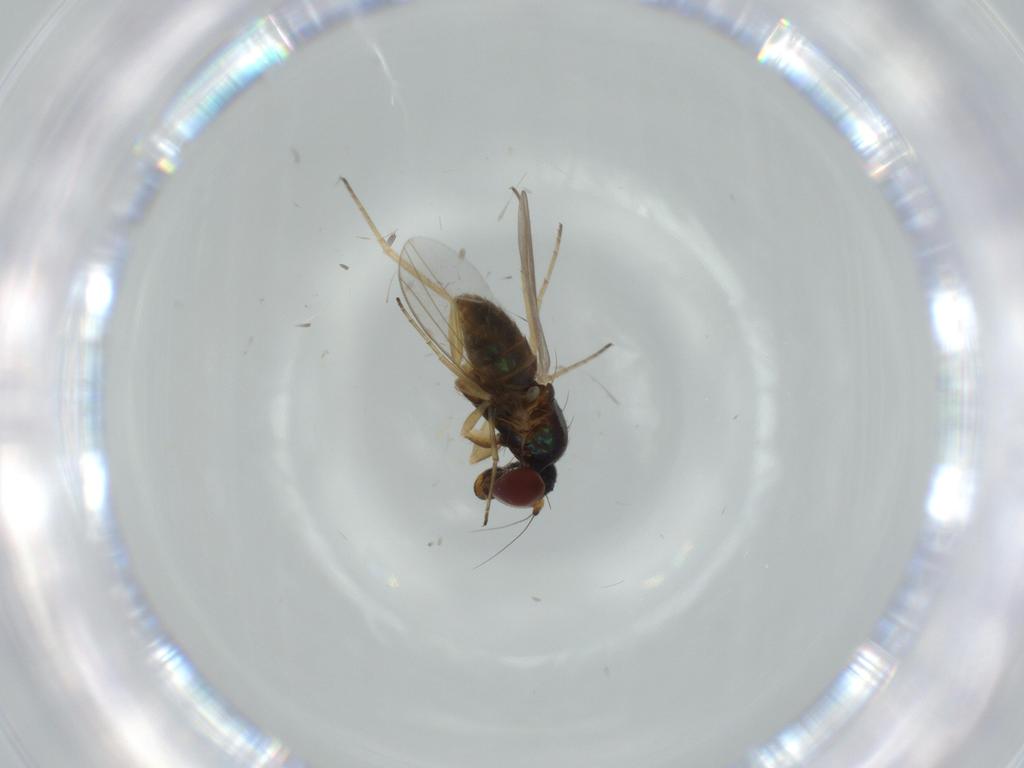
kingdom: Animalia
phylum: Arthropoda
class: Insecta
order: Diptera
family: Dolichopodidae
